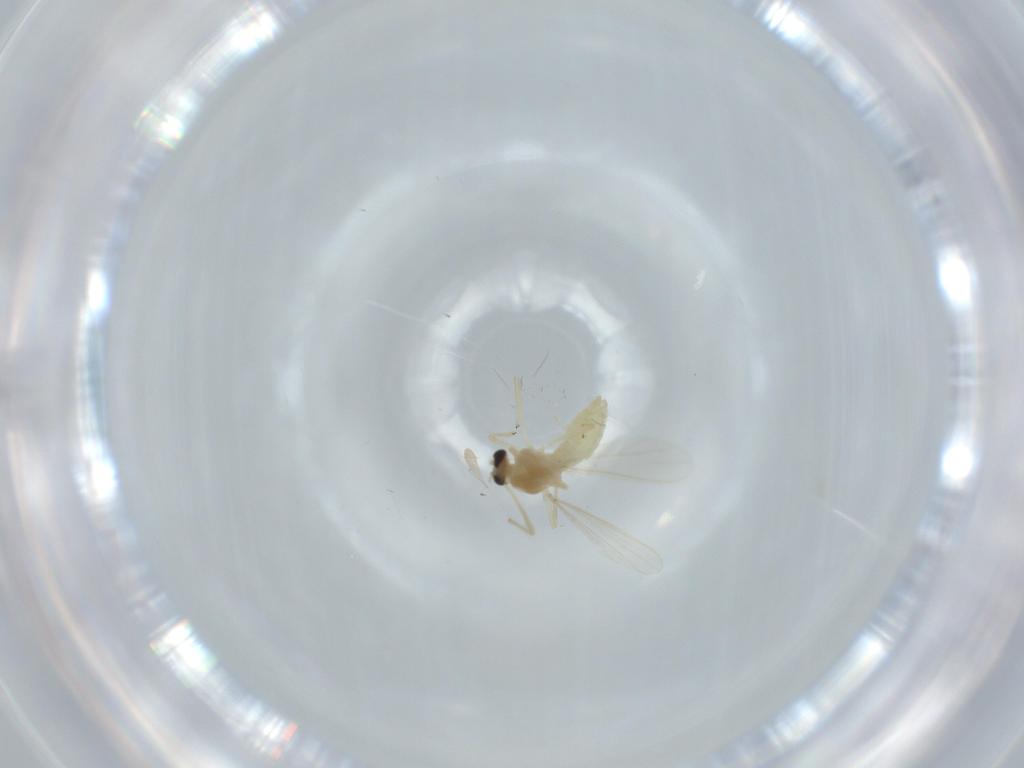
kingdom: Animalia
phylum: Arthropoda
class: Insecta
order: Diptera
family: Chironomidae
